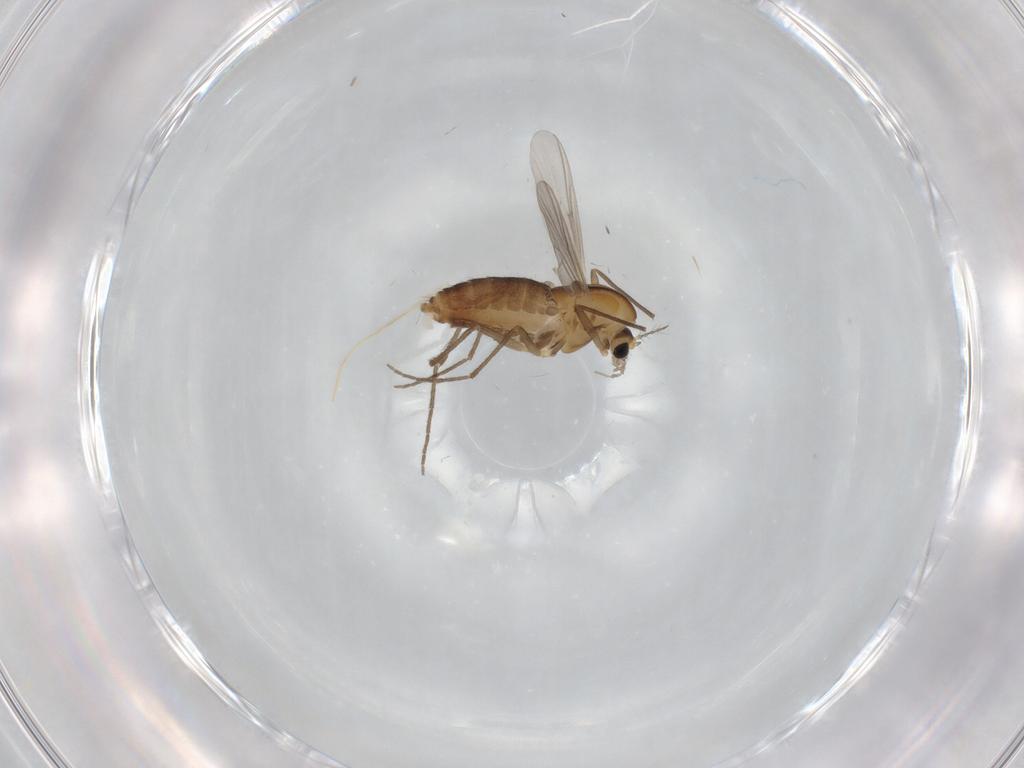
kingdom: Animalia
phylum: Arthropoda
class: Insecta
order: Diptera
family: Chironomidae
